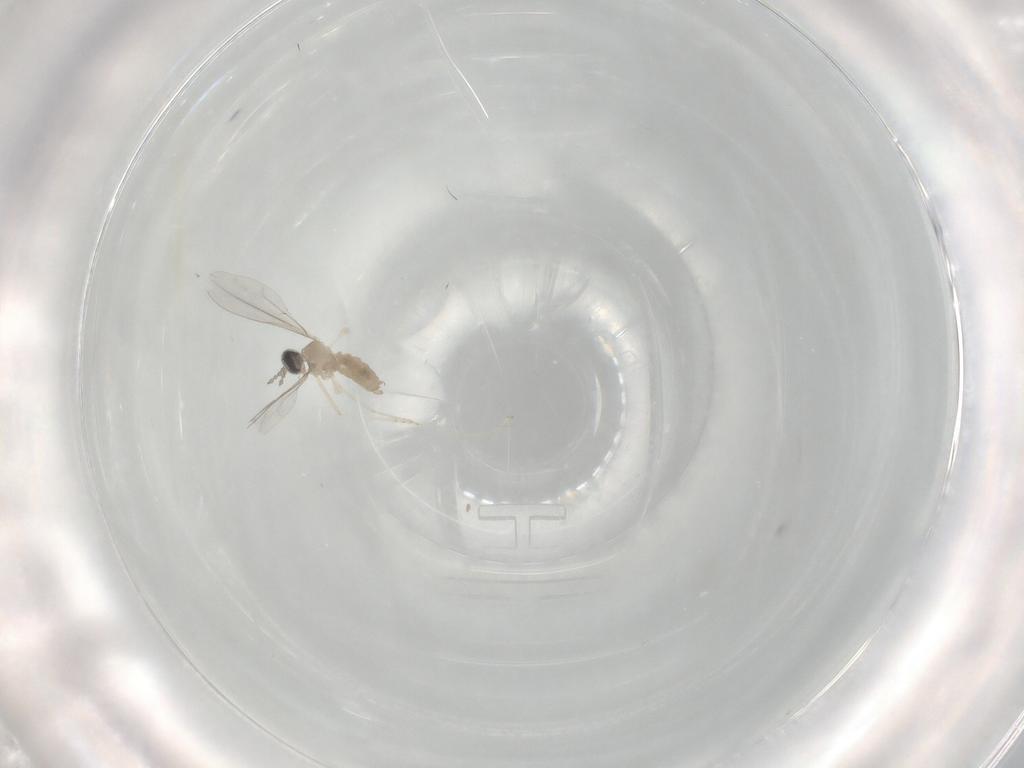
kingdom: Animalia
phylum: Arthropoda
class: Insecta
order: Diptera
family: Cecidomyiidae
